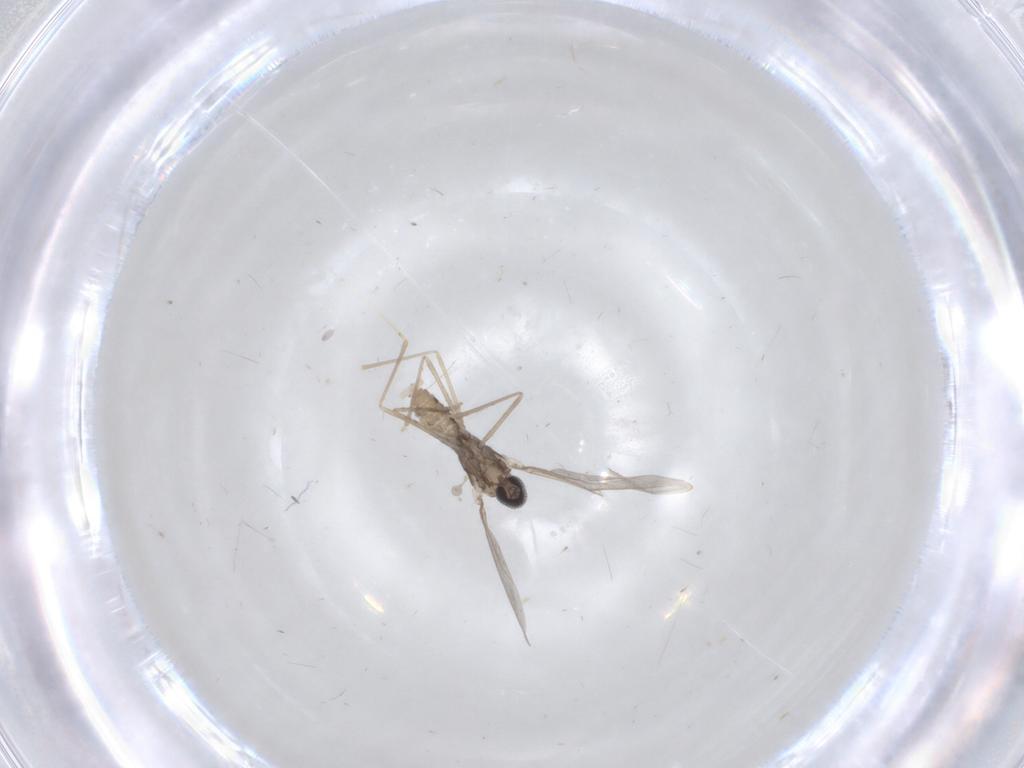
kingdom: Animalia
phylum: Arthropoda
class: Insecta
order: Diptera
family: Cecidomyiidae
